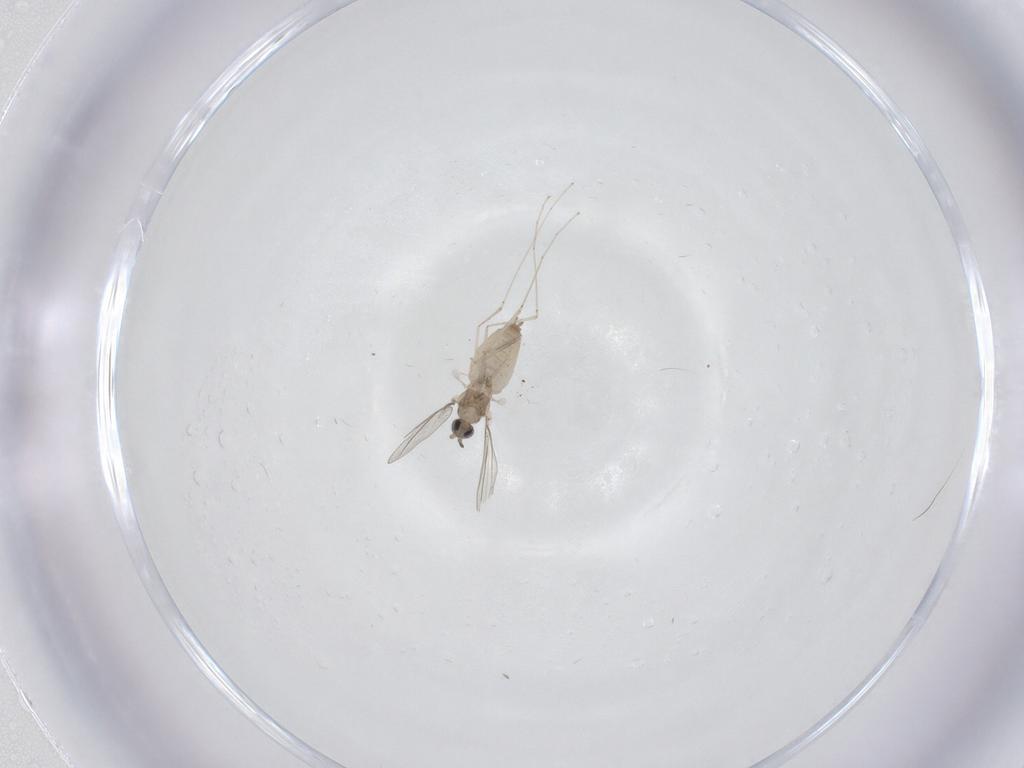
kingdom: Animalia
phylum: Arthropoda
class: Insecta
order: Diptera
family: Cecidomyiidae
